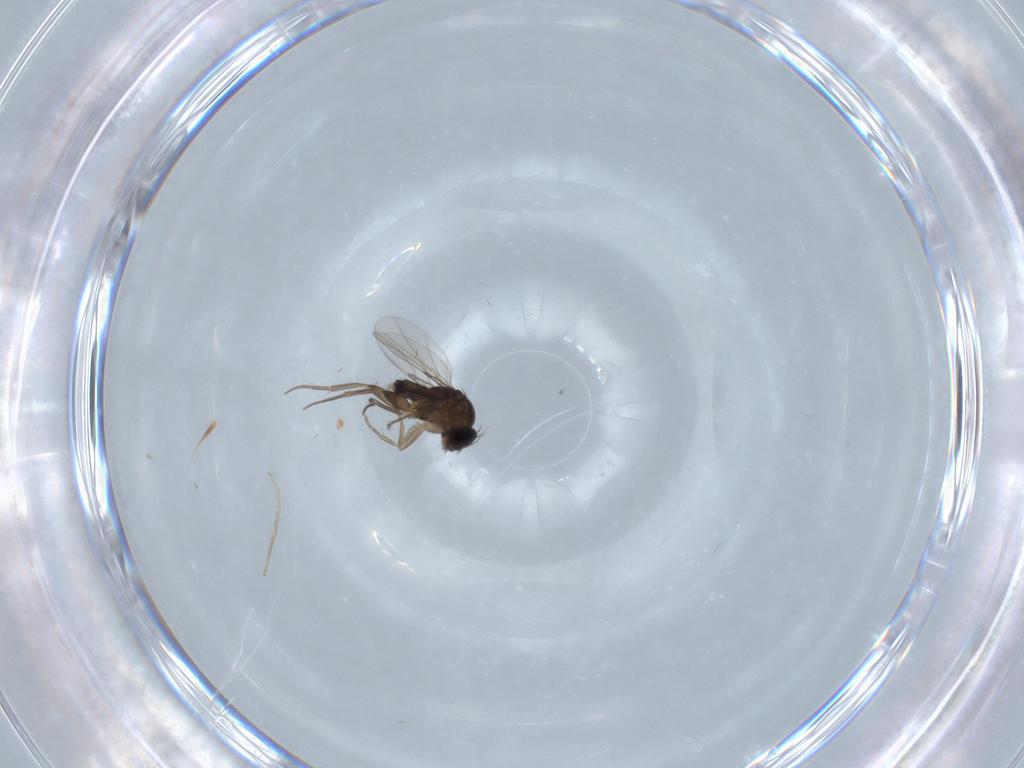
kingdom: Animalia
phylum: Arthropoda
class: Insecta
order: Diptera
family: Phoridae
